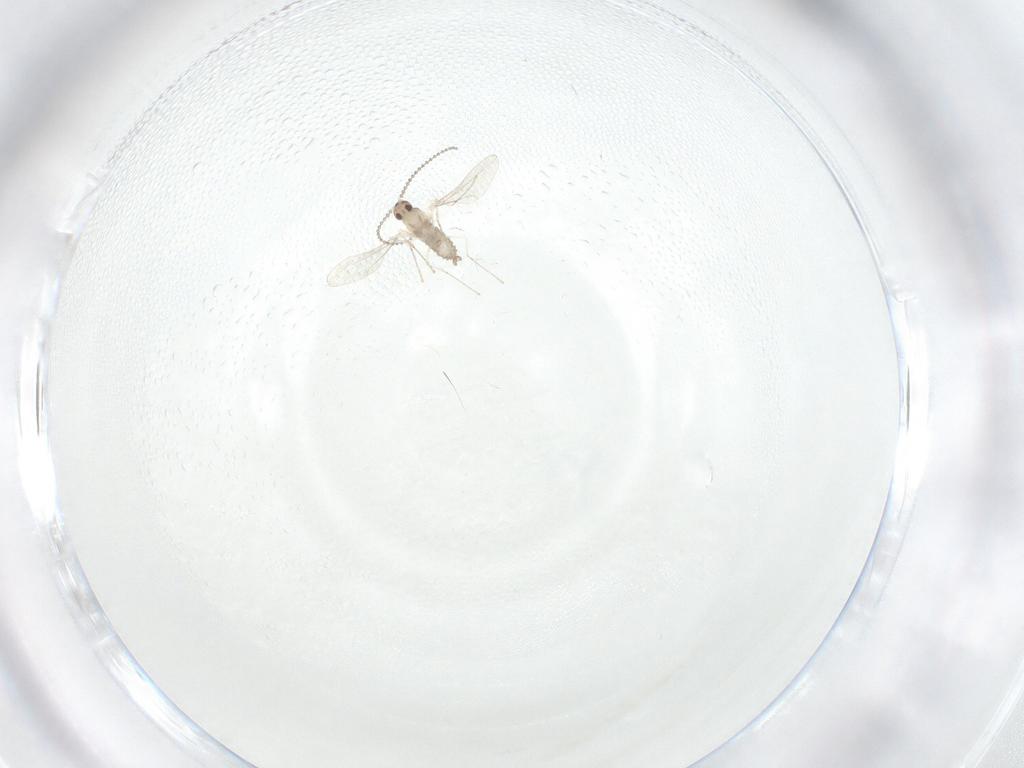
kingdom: Animalia
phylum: Arthropoda
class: Insecta
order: Diptera
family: Cecidomyiidae
